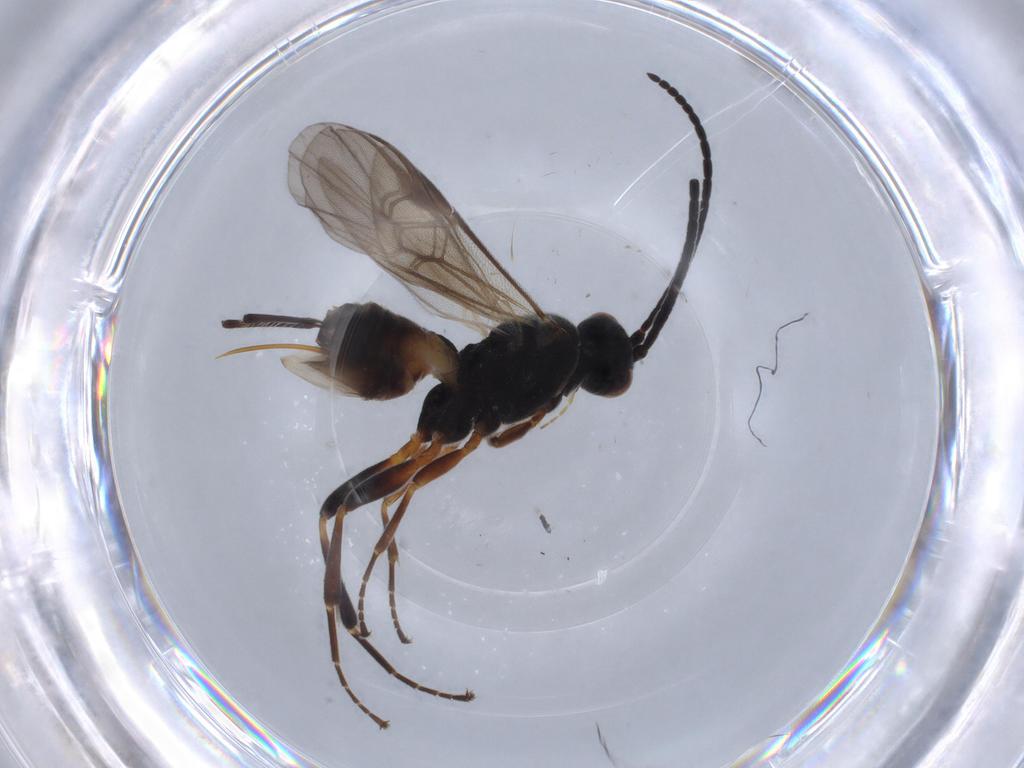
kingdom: Animalia
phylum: Arthropoda
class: Insecta
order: Hymenoptera
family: Braconidae
